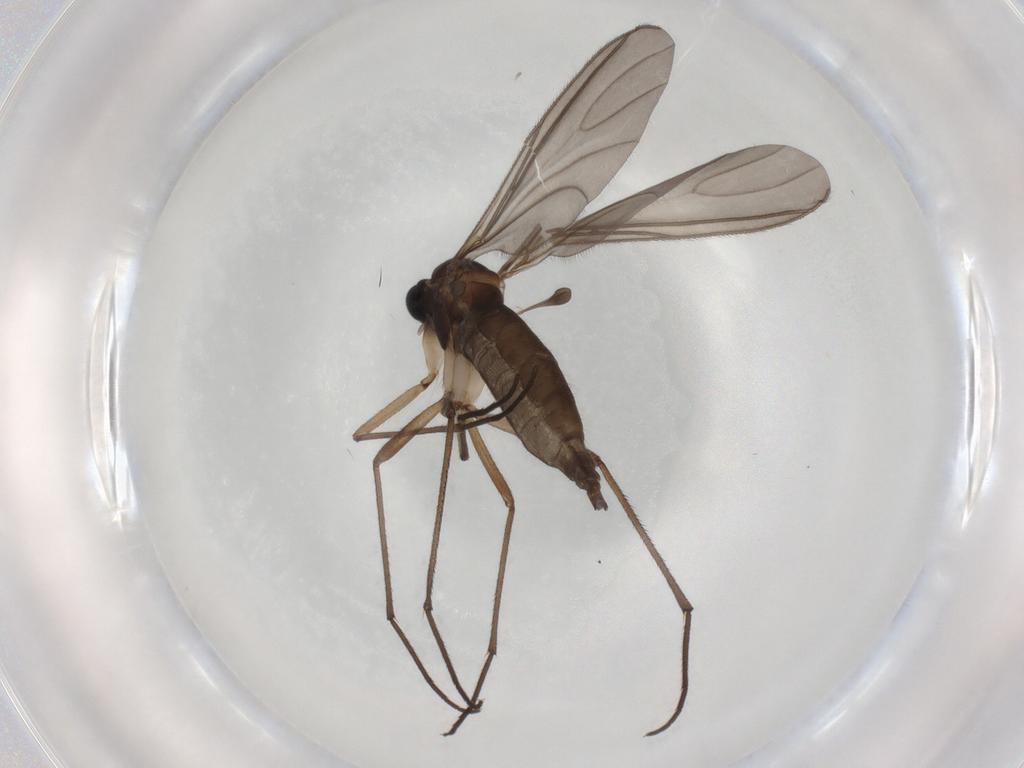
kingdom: Animalia
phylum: Arthropoda
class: Insecta
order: Diptera
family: Sciaridae
